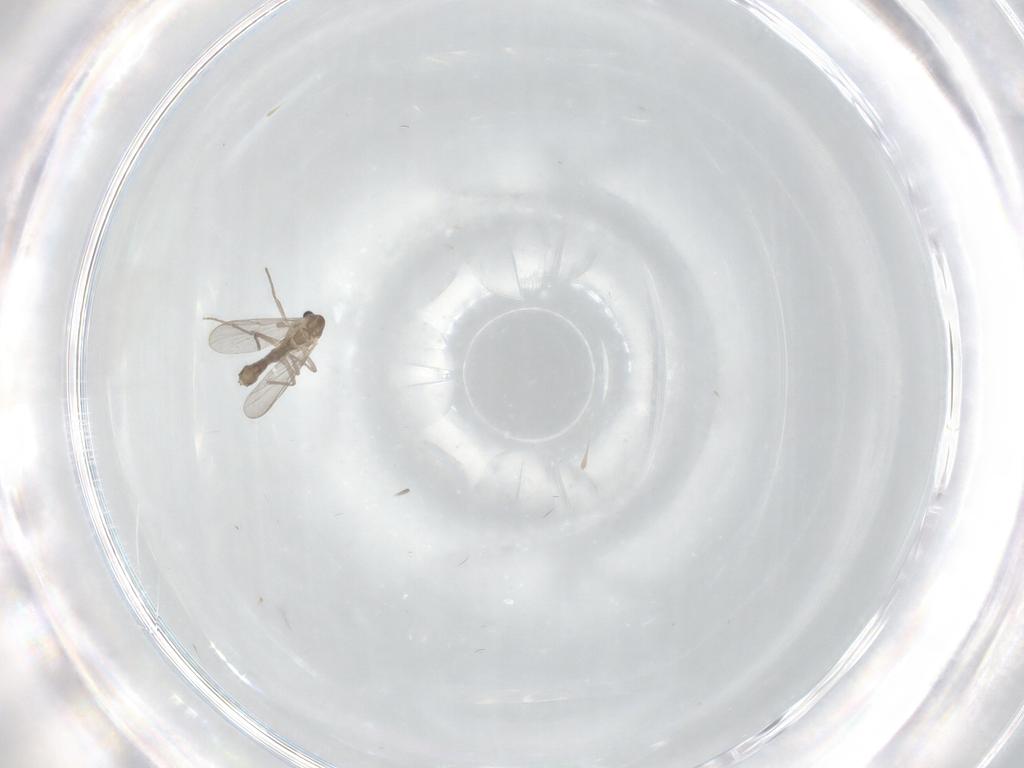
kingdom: Animalia
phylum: Arthropoda
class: Insecta
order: Diptera
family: Chironomidae
